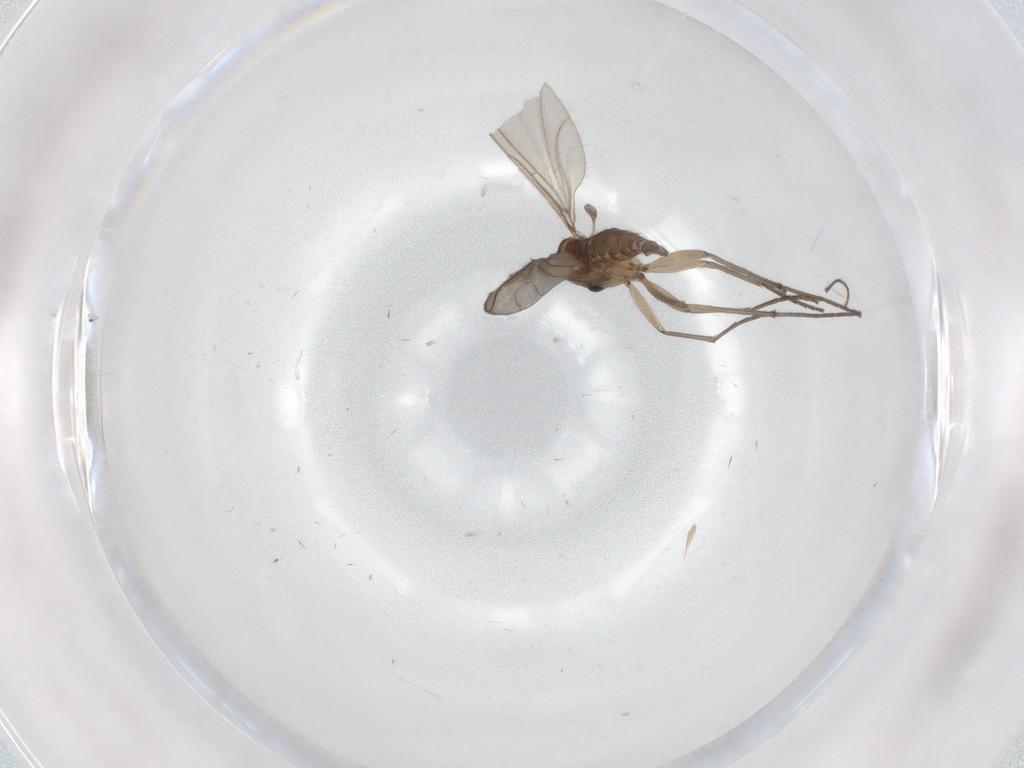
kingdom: Animalia
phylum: Arthropoda
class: Insecta
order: Diptera
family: Ceratopogonidae
